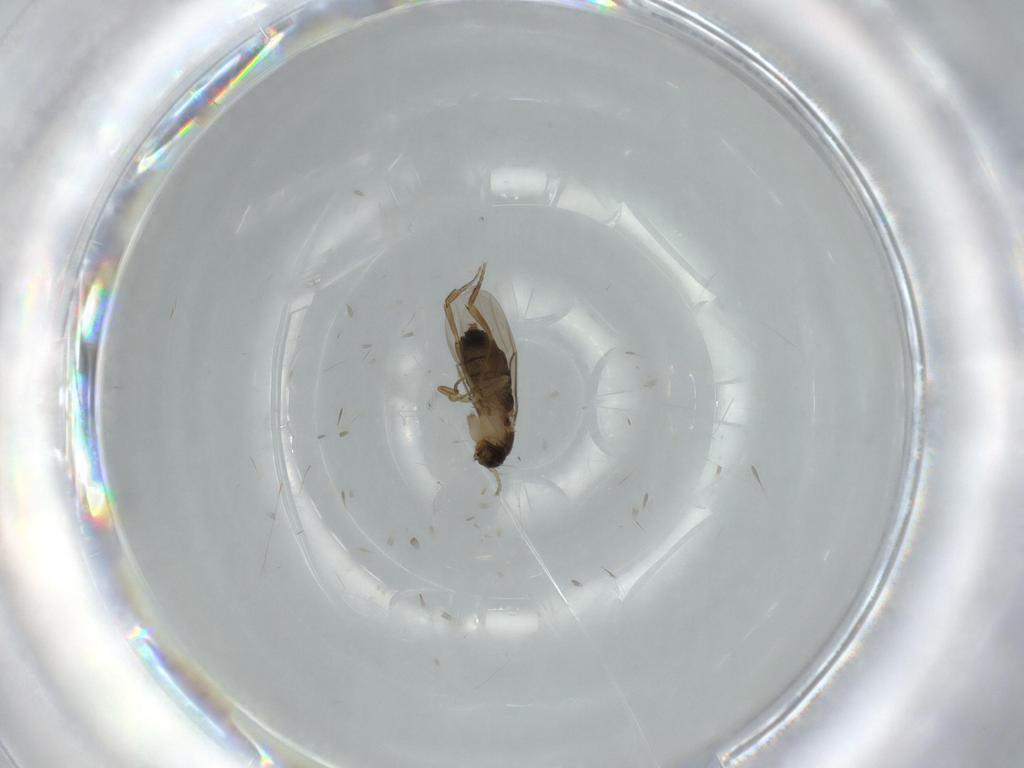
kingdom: Animalia
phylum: Arthropoda
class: Insecta
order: Diptera
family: Phoridae
